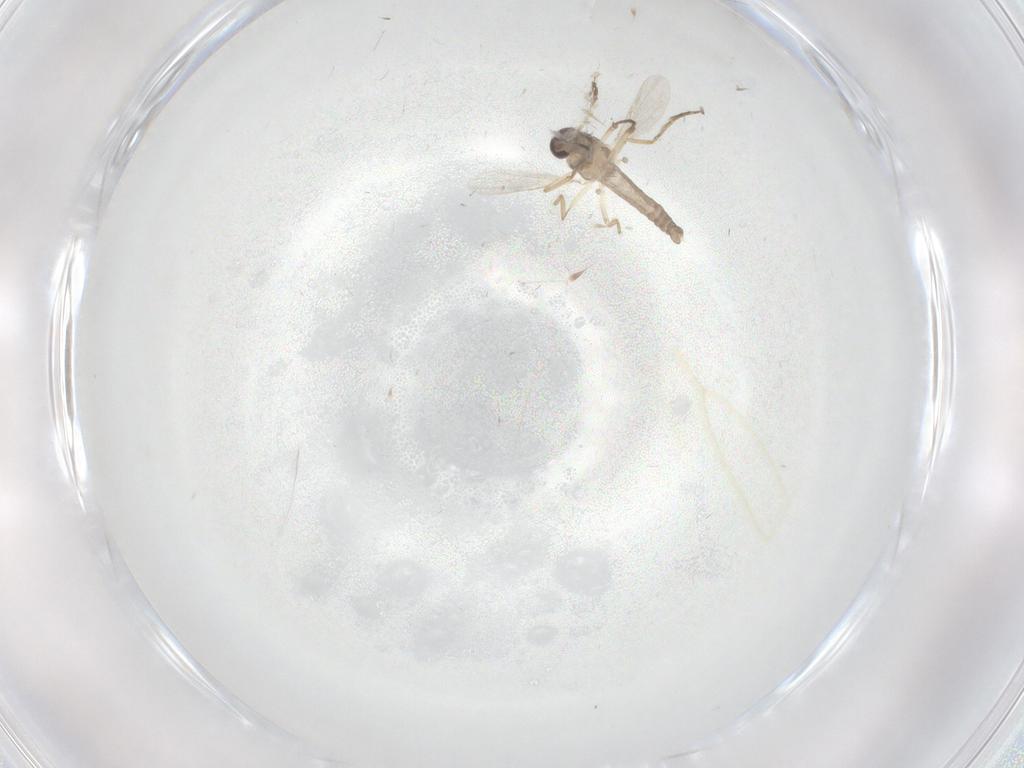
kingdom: Animalia
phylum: Arthropoda
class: Insecta
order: Diptera
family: Ceratopogonidae
